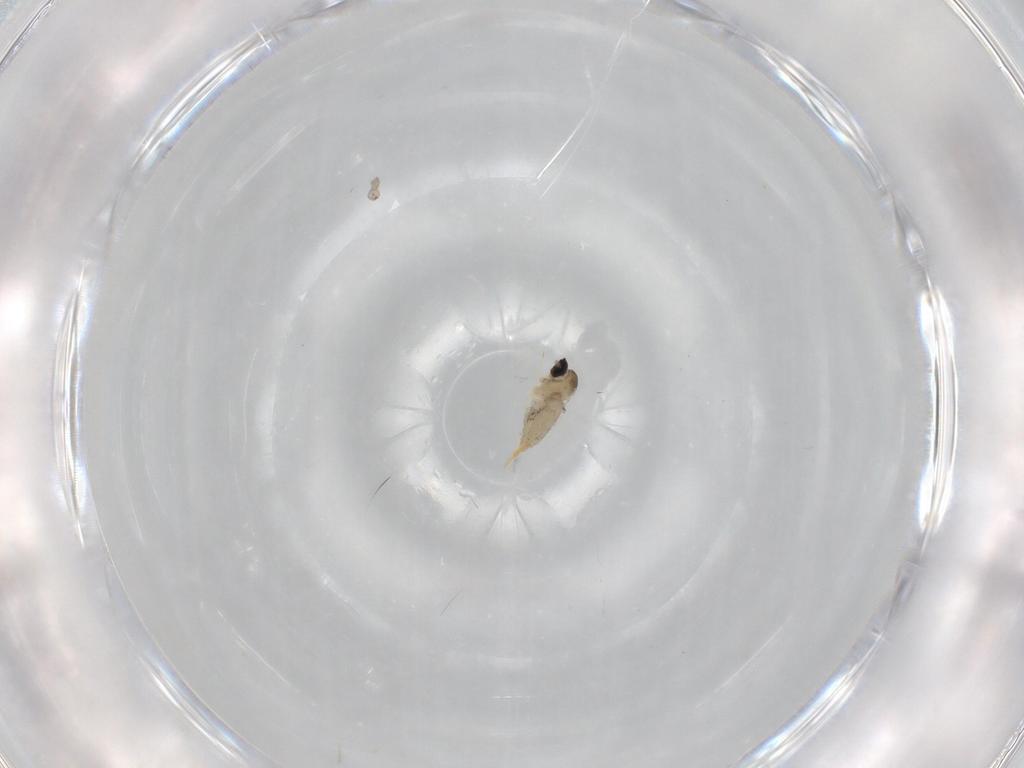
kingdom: Animalia
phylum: Arthropoda
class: Insecta
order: Diptera
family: Cecidomyiidae
